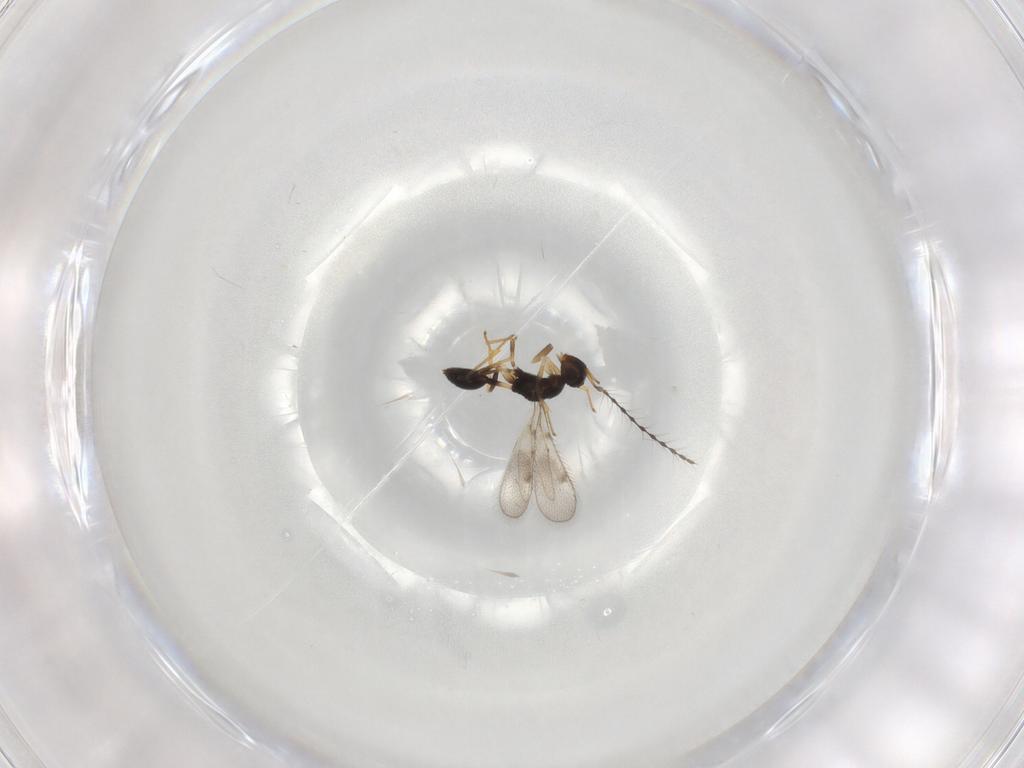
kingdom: Animalia
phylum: Arthropoda
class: Insecta
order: Hymenoptera
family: Diparidae
